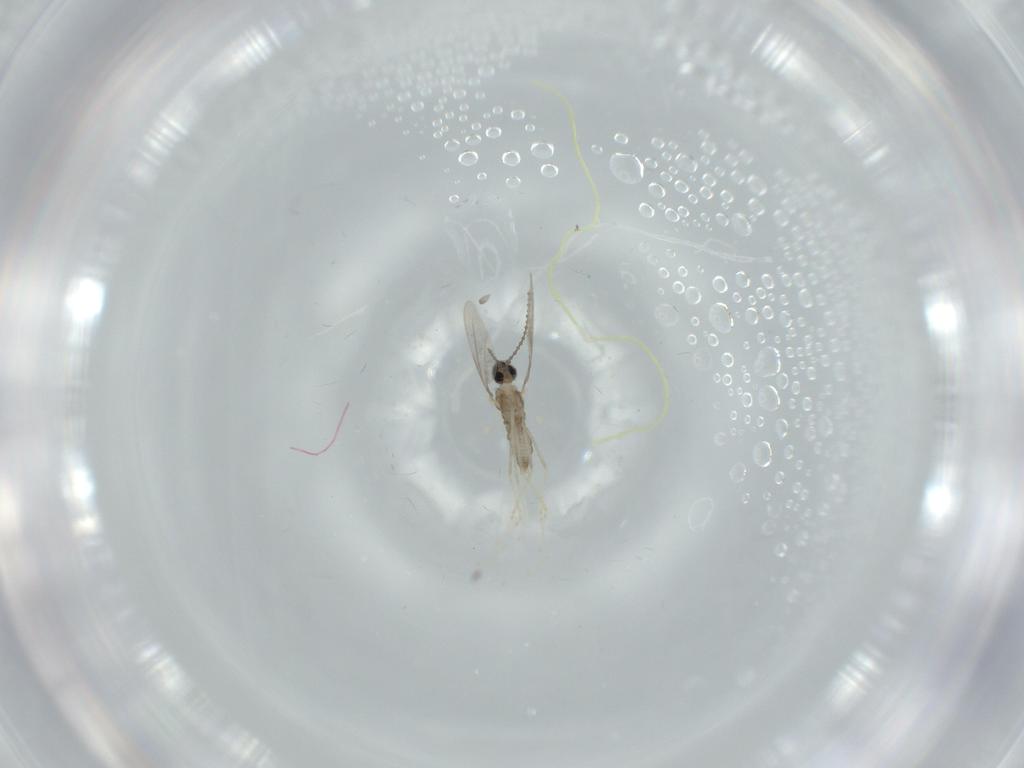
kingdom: Animalia
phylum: Arthropoda
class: Insecta
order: Diptera
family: Cecidomyiidae
